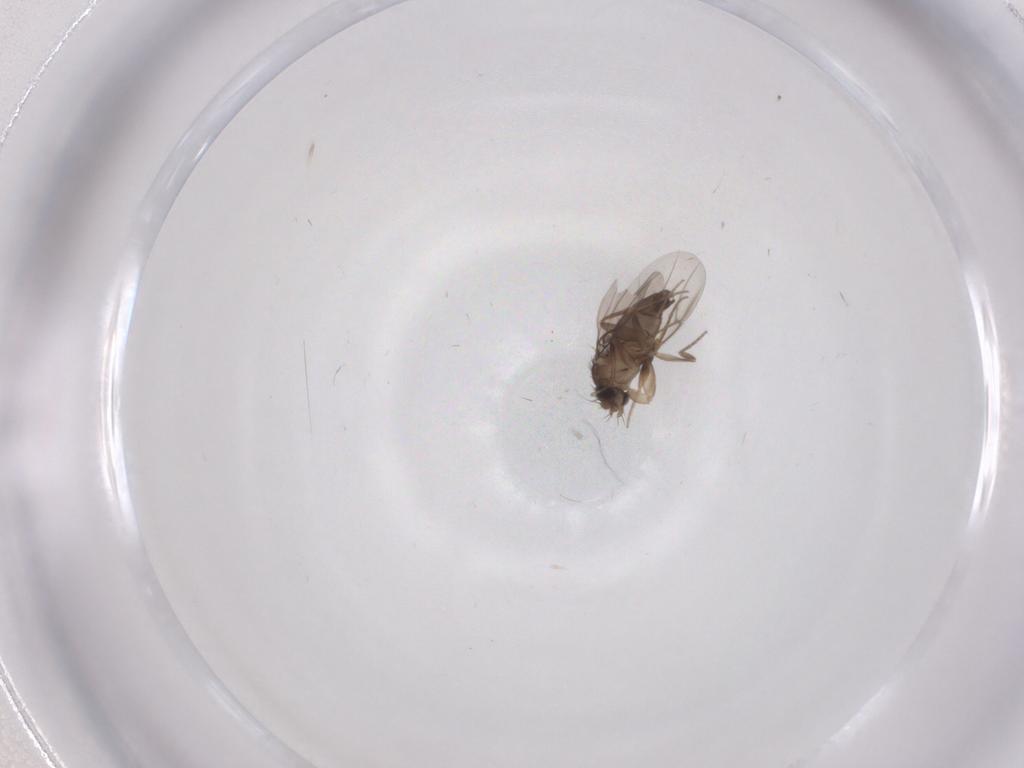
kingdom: Animalia
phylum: Arthropoda
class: Insecta
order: Diptera
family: Phoridae
